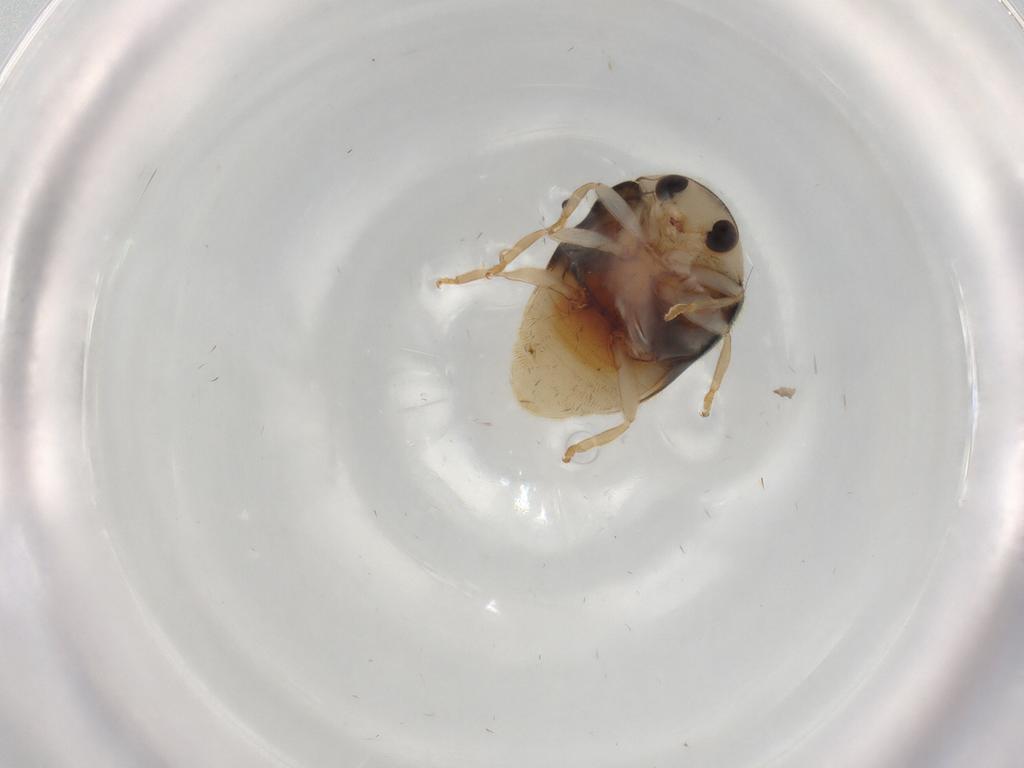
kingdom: Animalia
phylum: Arthropoda
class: Insecta
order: Coleoptera
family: Coccinellidae
